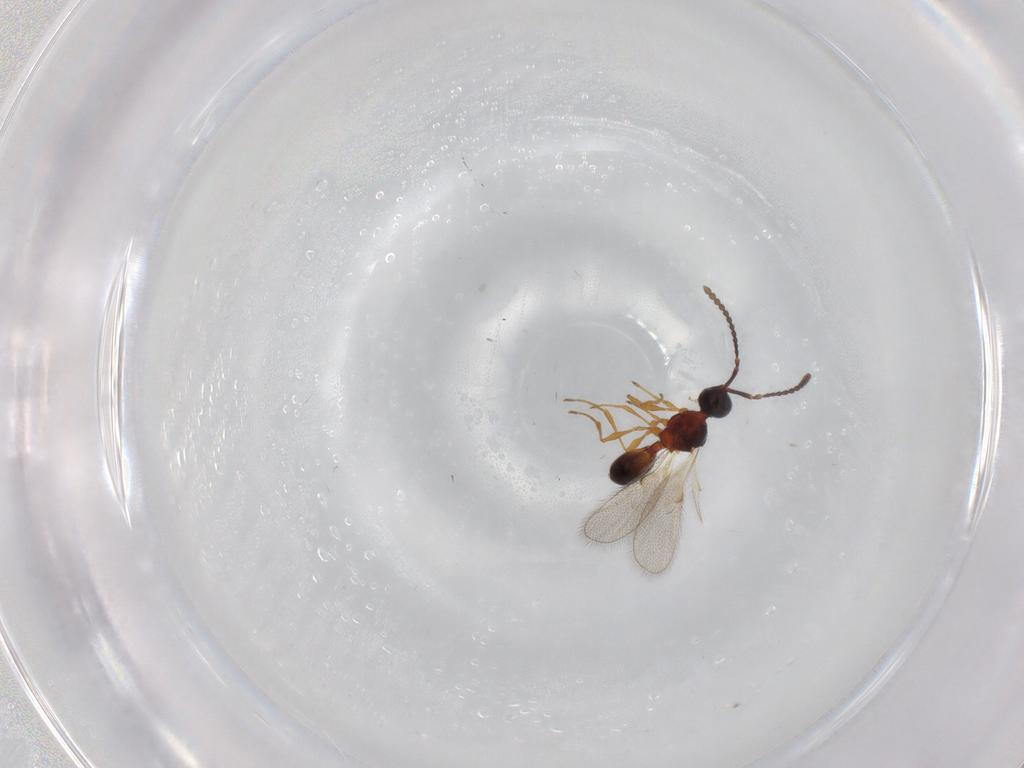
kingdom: Animalia
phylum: Arthropoda
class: Insecta
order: Hymenoptera
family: Diapriidae
